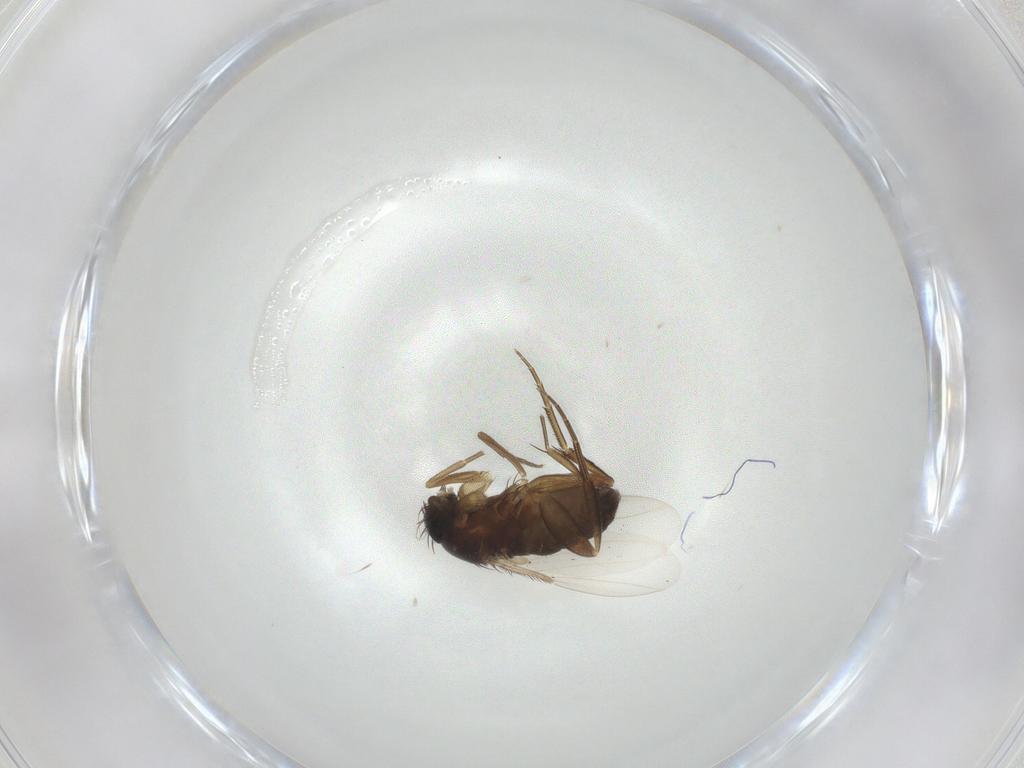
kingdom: Animalia
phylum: Arthropoda
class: Insecta
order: Diptera
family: Phoridae
